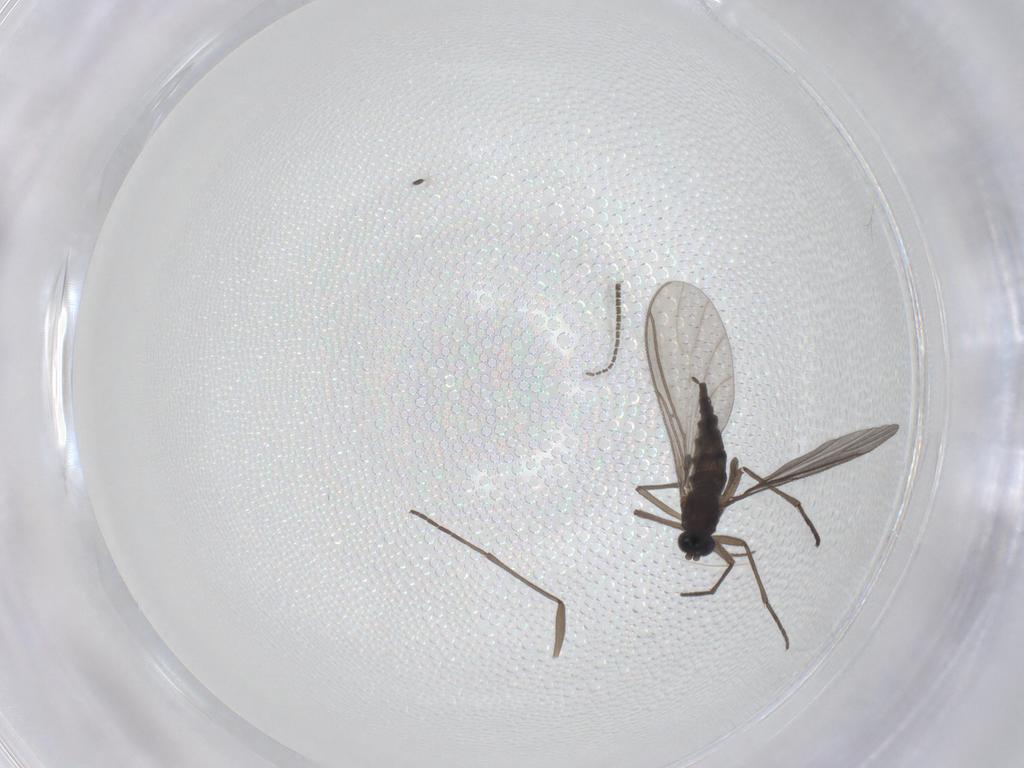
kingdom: Animalia
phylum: Arthropoda
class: Insecta
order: Diptera
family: Sciaridae
